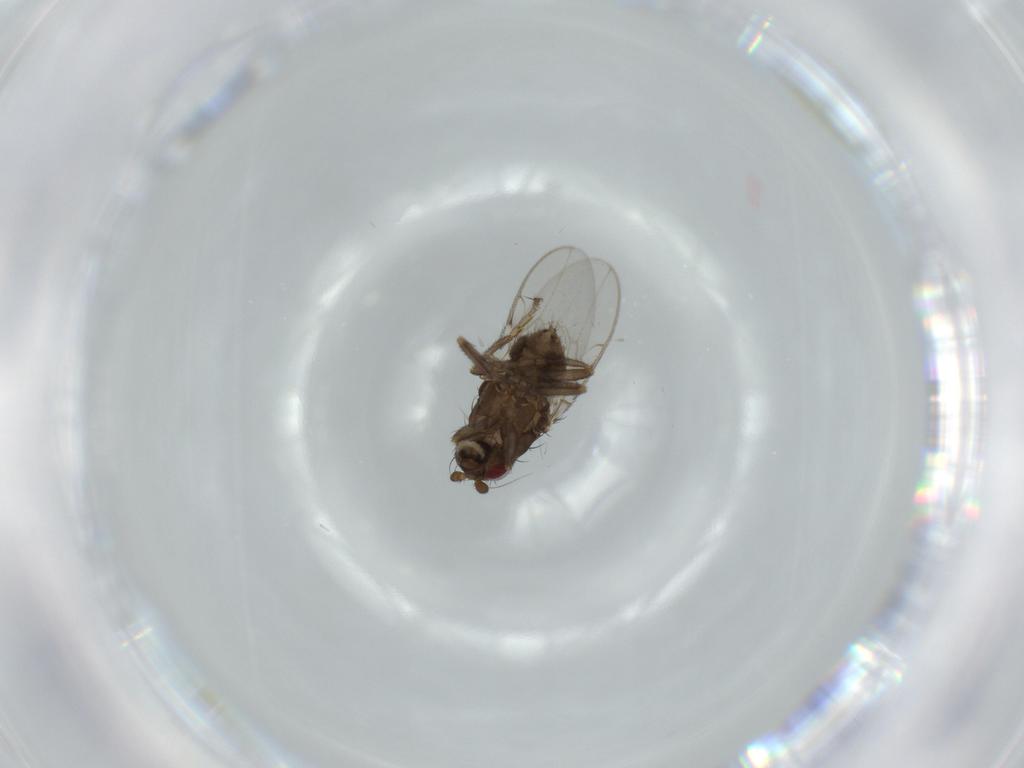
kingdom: Animalia
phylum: Arthropoda
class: Insecta
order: Diptera
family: Sphaeroceridae
